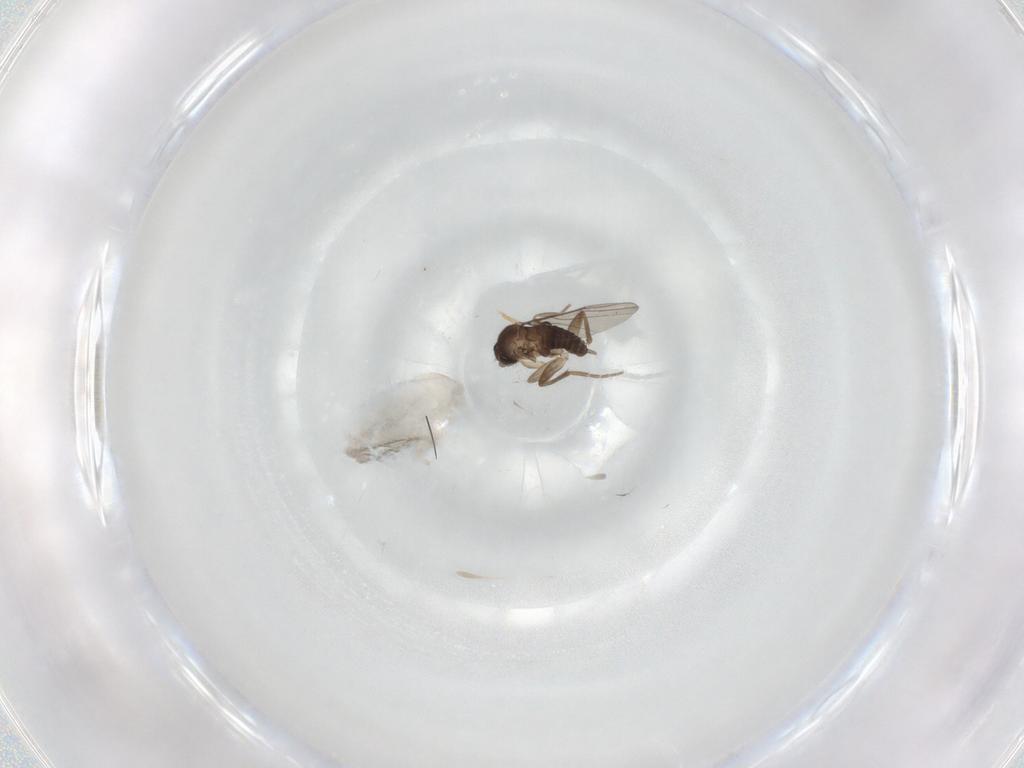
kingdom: Animalia
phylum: Arthropoda
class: Insecta
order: Diptera
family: Phoridae
